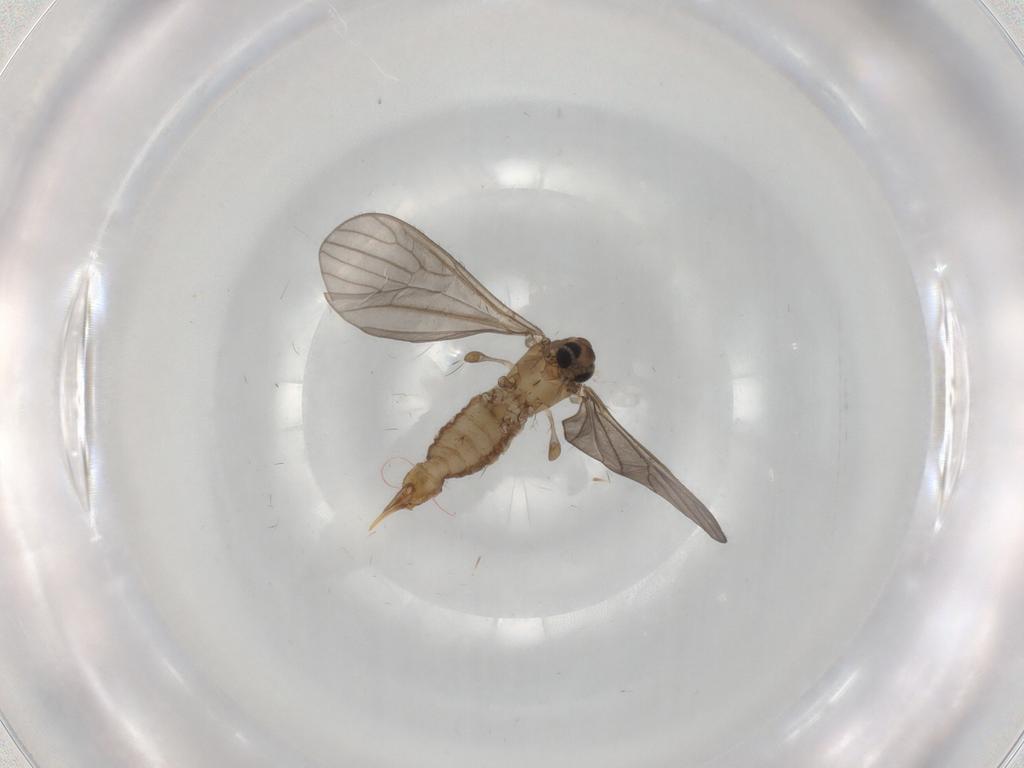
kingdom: Animalia
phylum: Arthropoda
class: Insecta
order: Diptera
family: Limoniidae
